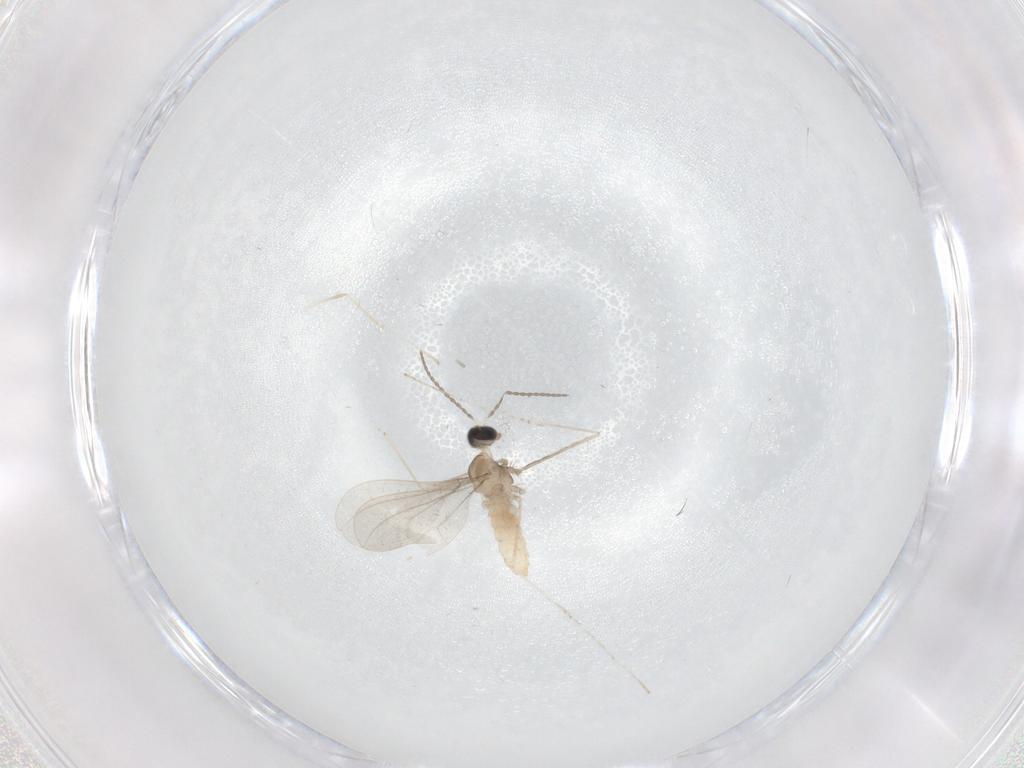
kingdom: Animalia
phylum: Arthropoda
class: Insecta
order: Diptera
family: Cecidomyiidae
